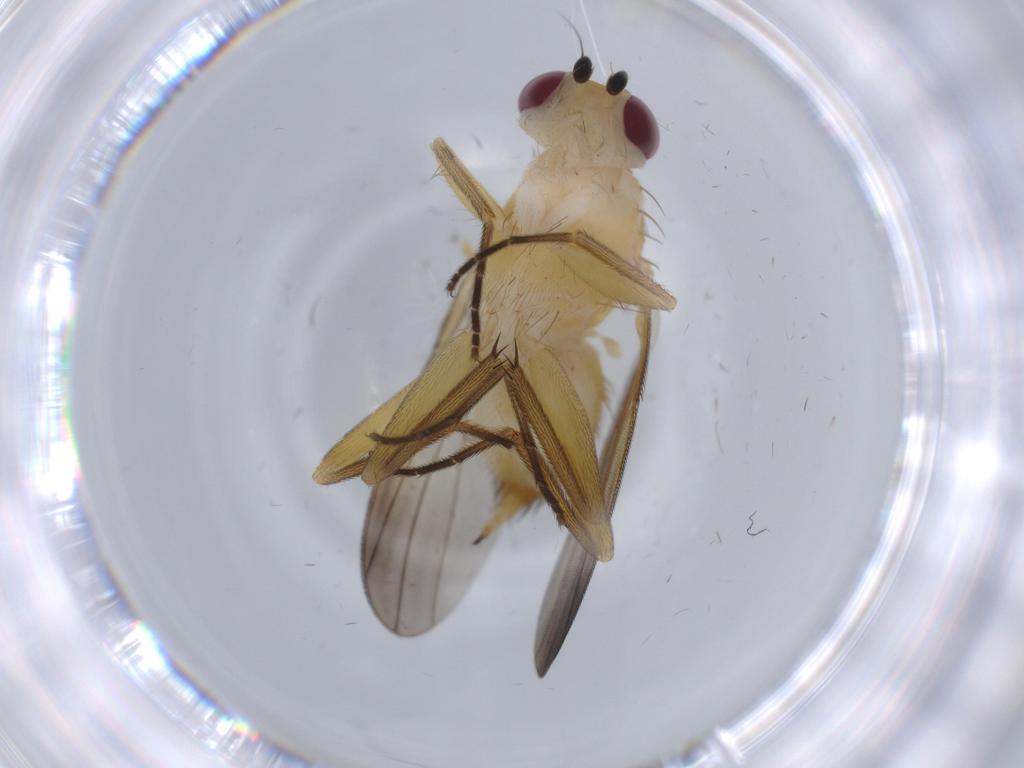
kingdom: Animalia
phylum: Arthropoda
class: Insecta
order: Diptera
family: Clusiidae
